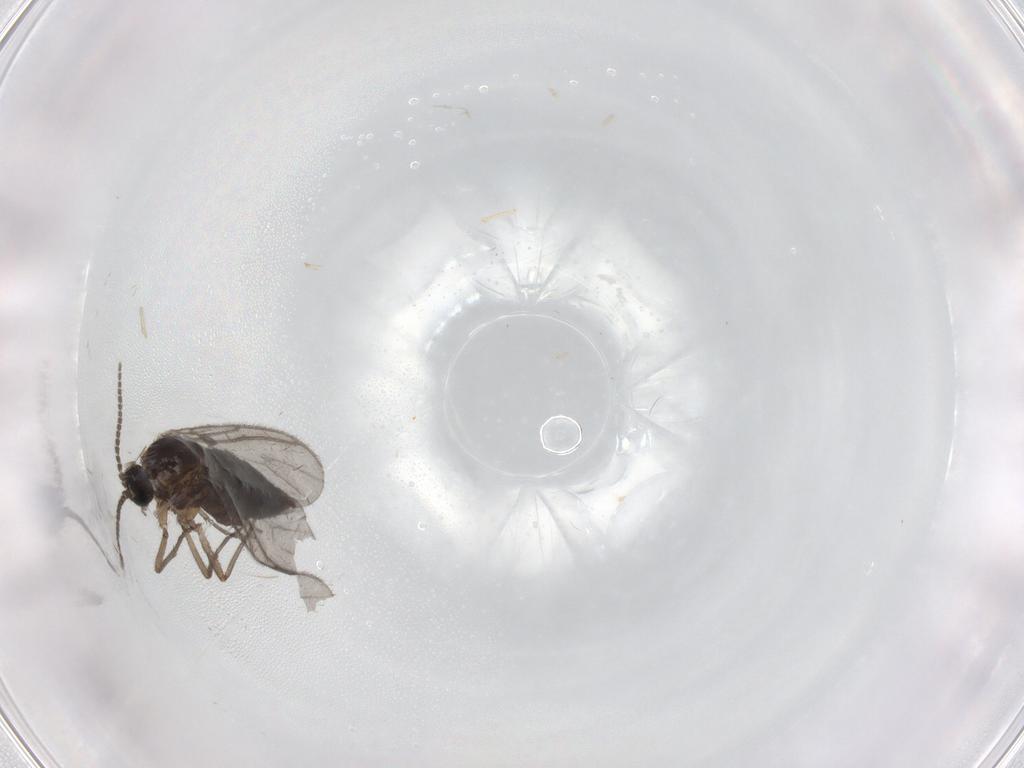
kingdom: Animalia
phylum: Arthropoda
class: Insecta
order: Diptera
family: Cecidomyiidae
